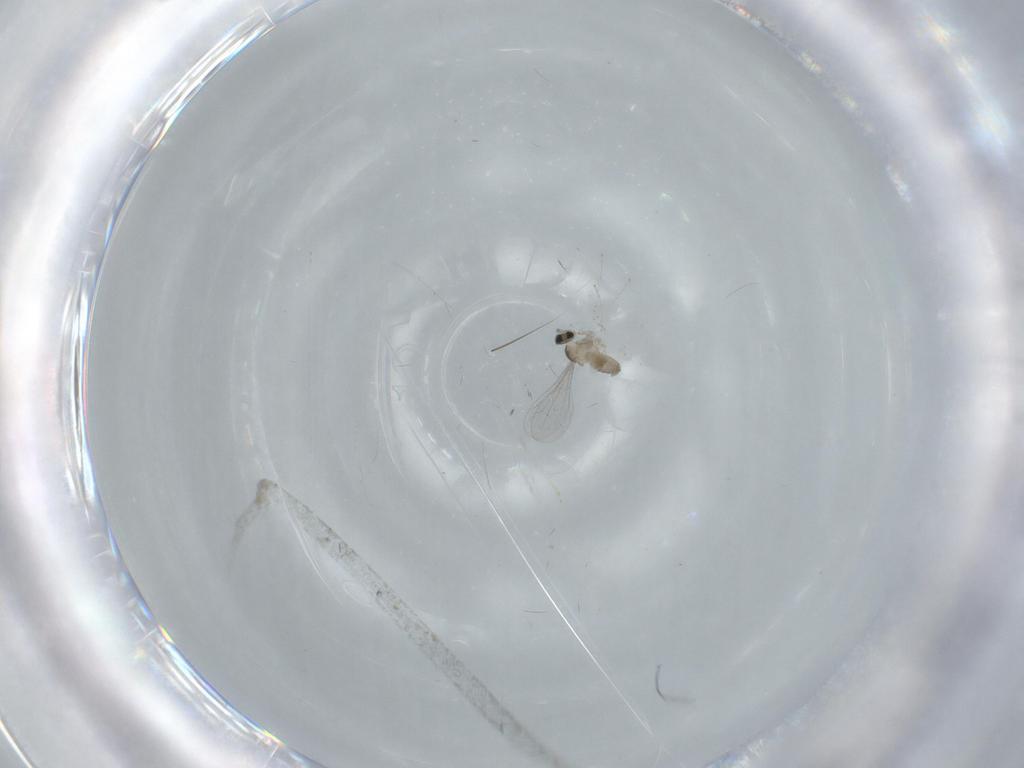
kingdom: Animalia
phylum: Arthropoda
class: Insecta
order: Diptera
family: Cecidomyiidae
